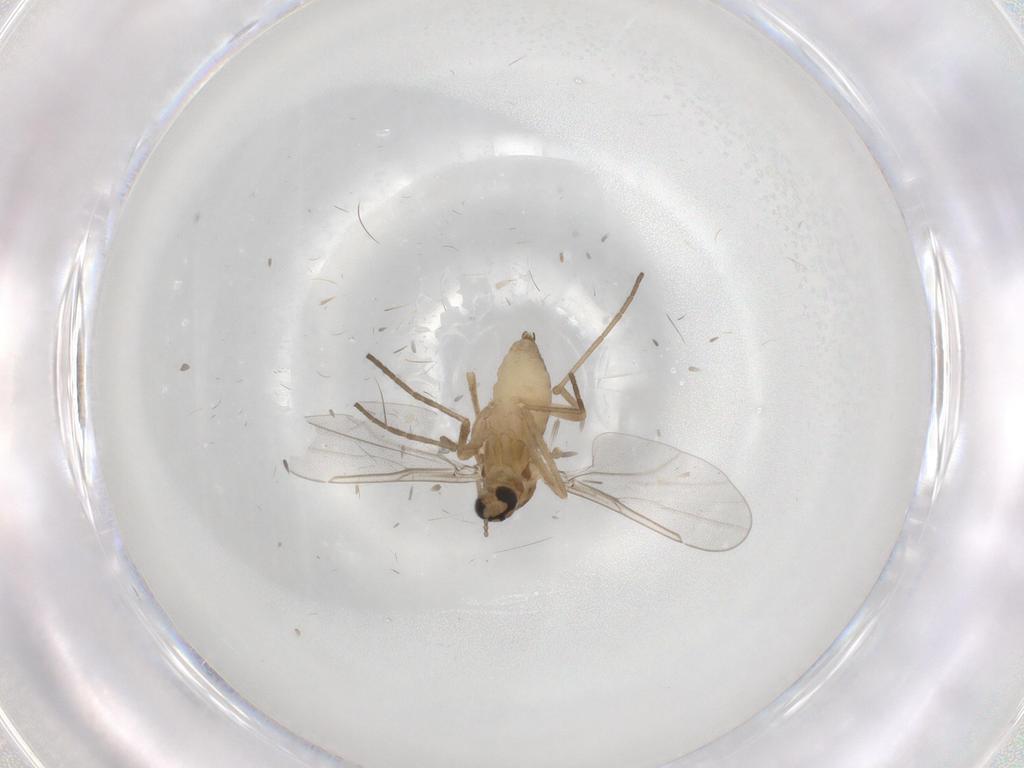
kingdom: Animalia
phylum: Arthropoda
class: Insecta
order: Diptera
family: Cecidomyiidae
